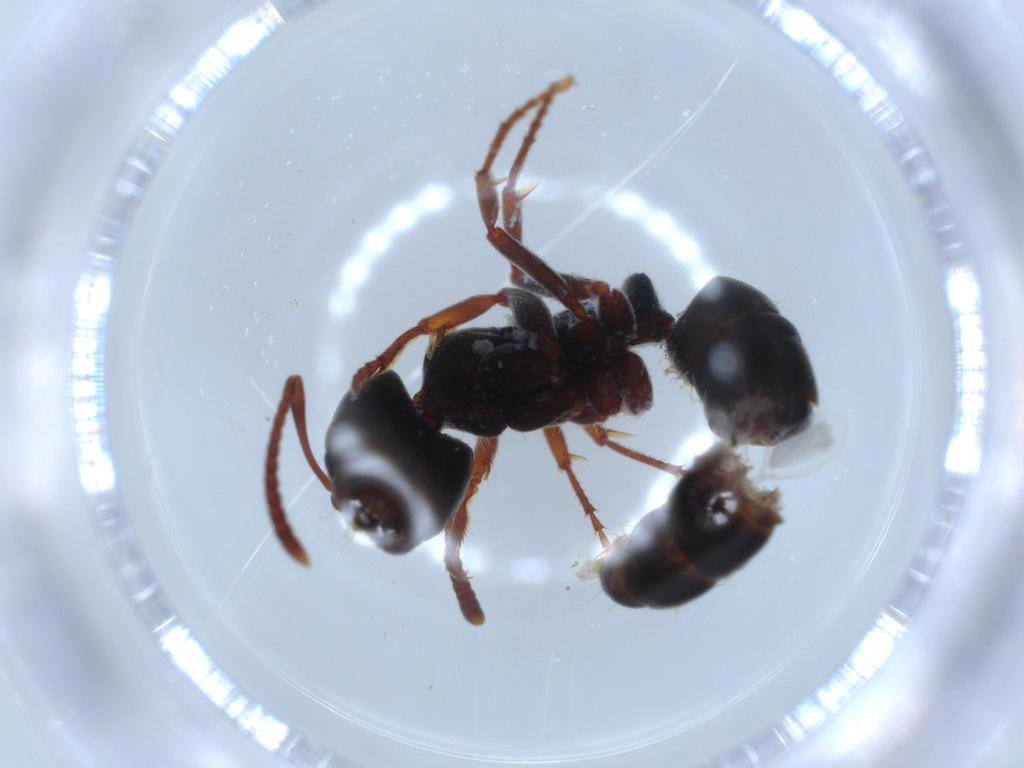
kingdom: Animalia
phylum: Arthropoda
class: Insecta
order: Hymenoptera
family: Formicidae
